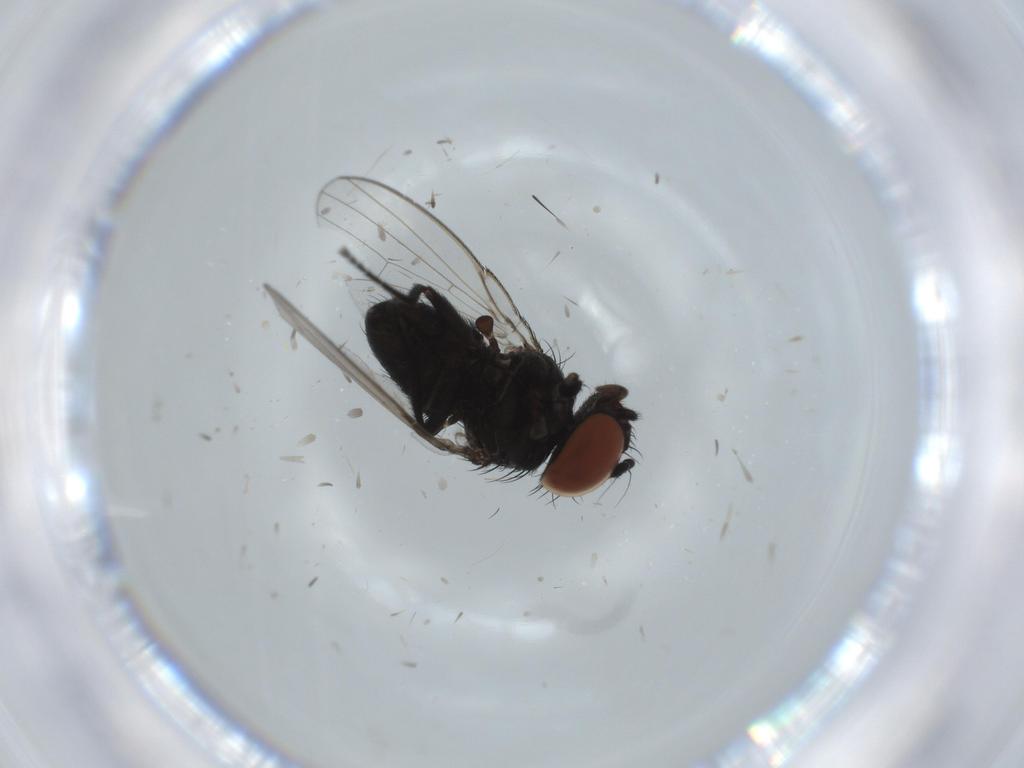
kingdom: Animalia
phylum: Arthropoda
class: Insecta
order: Diptera
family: Milichiidae
